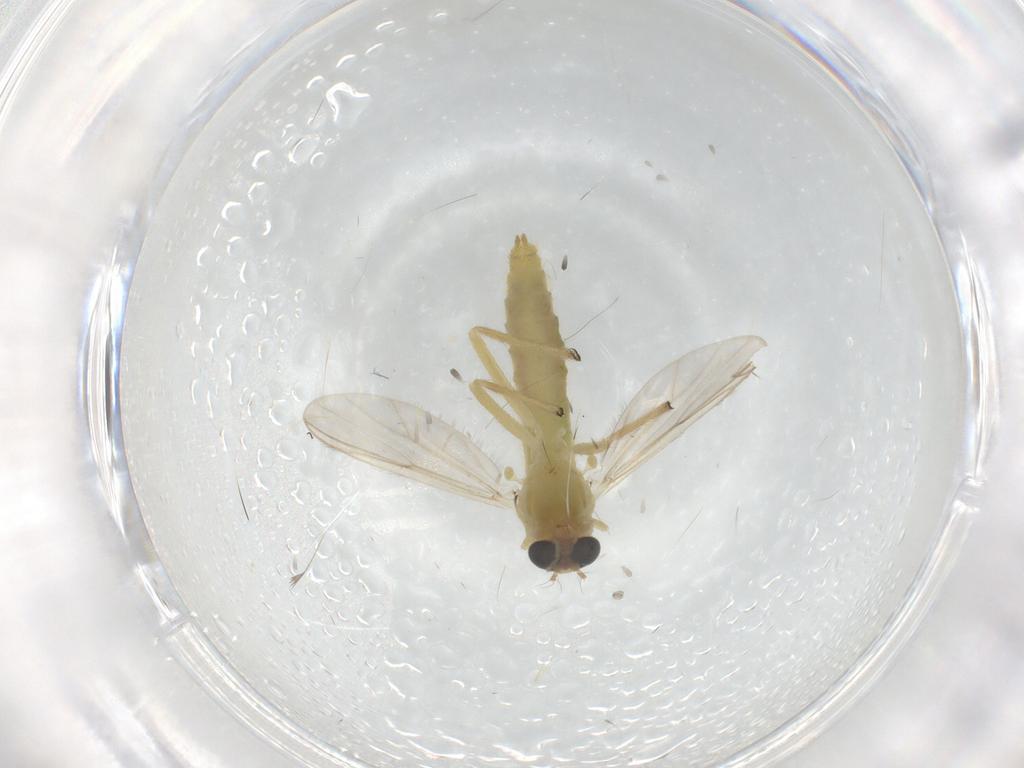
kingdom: Animalia
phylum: Arthropoda
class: Insecta
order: Diptera
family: Chironomidae
